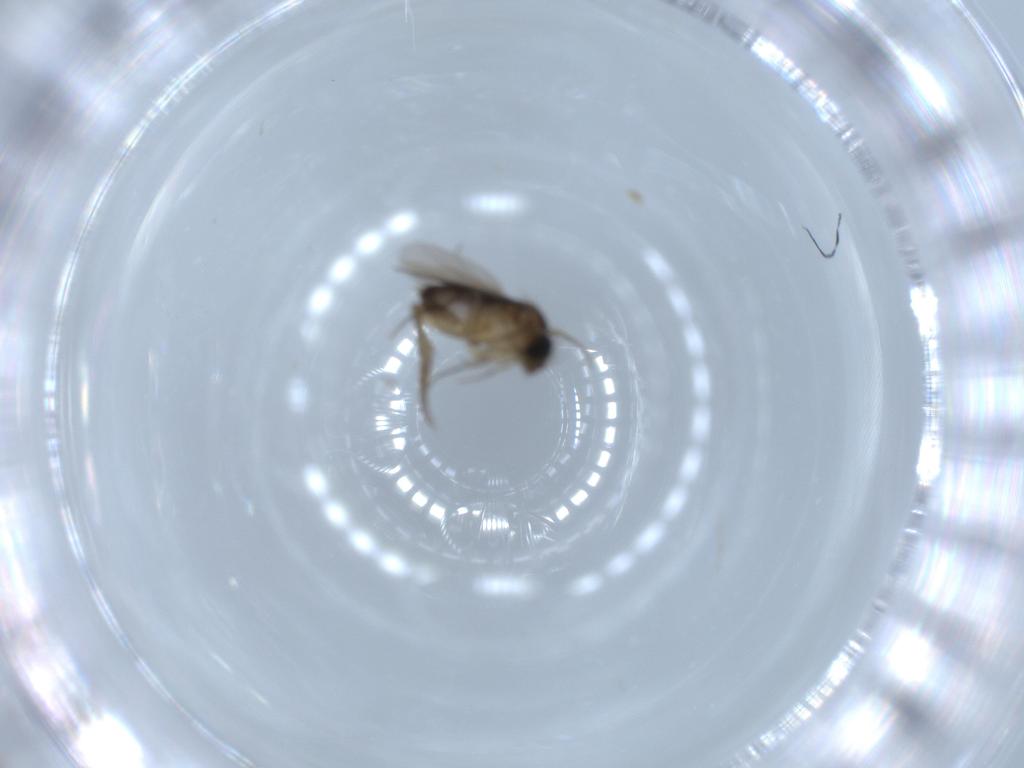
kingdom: Animalia
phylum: Arthropoda
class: Insecta
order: Diptera
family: Phoridae
